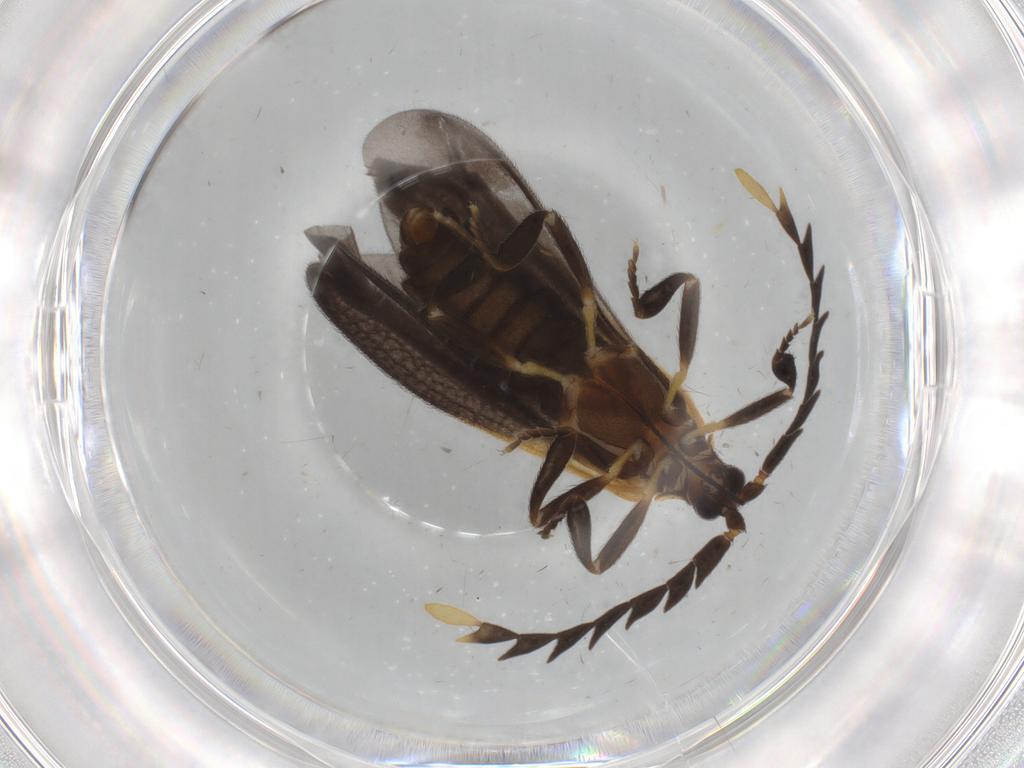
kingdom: Animalia
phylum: Arthropoda
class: Insecta
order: Coleoptera
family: Lycidae
